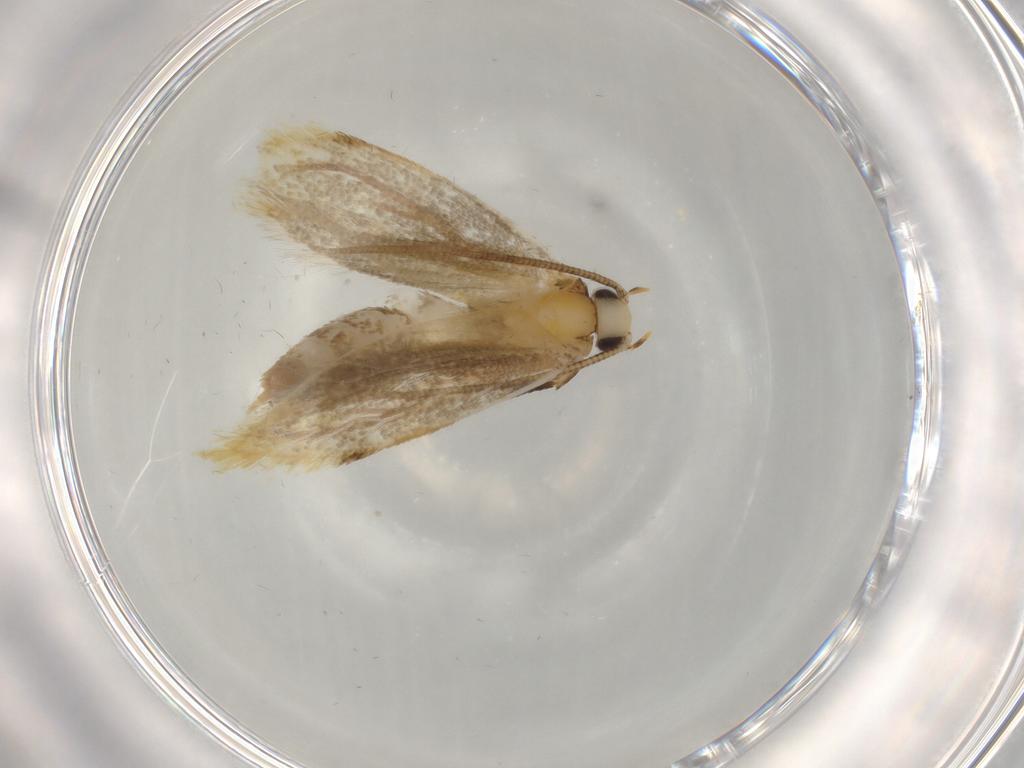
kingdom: Animalia
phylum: Arthropoda
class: Insecta
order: Lepidoptera
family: Tineidae
